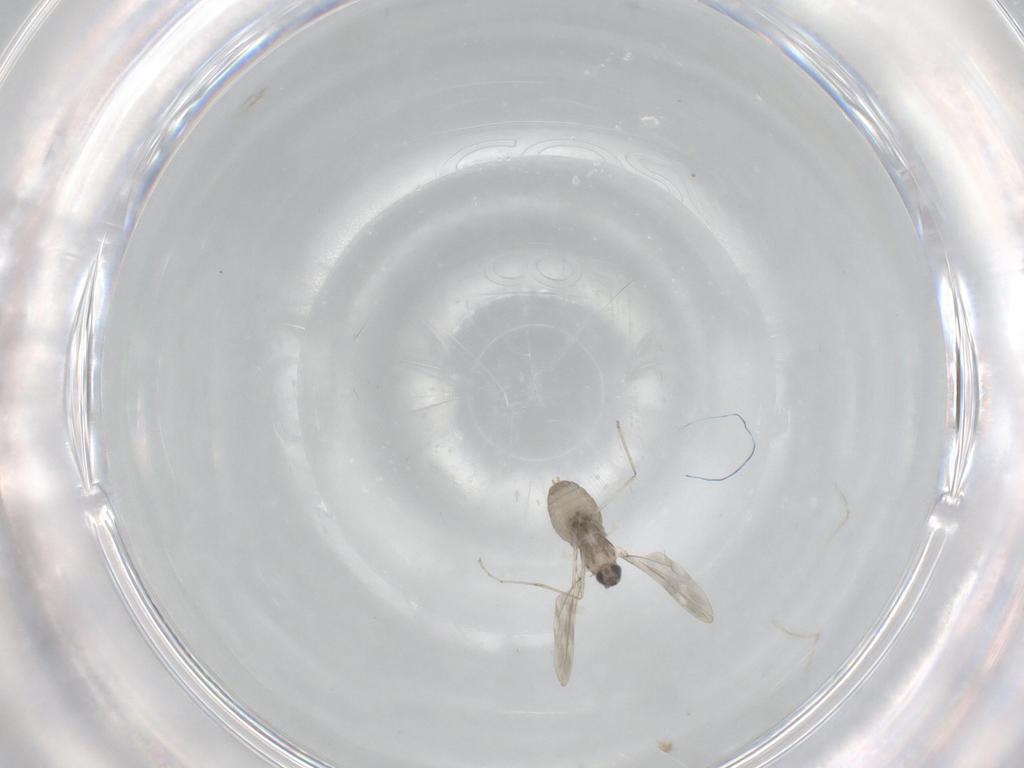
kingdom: Animalia
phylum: Arthropoda
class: Insecta
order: Diptera
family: Cecidomyiidae
